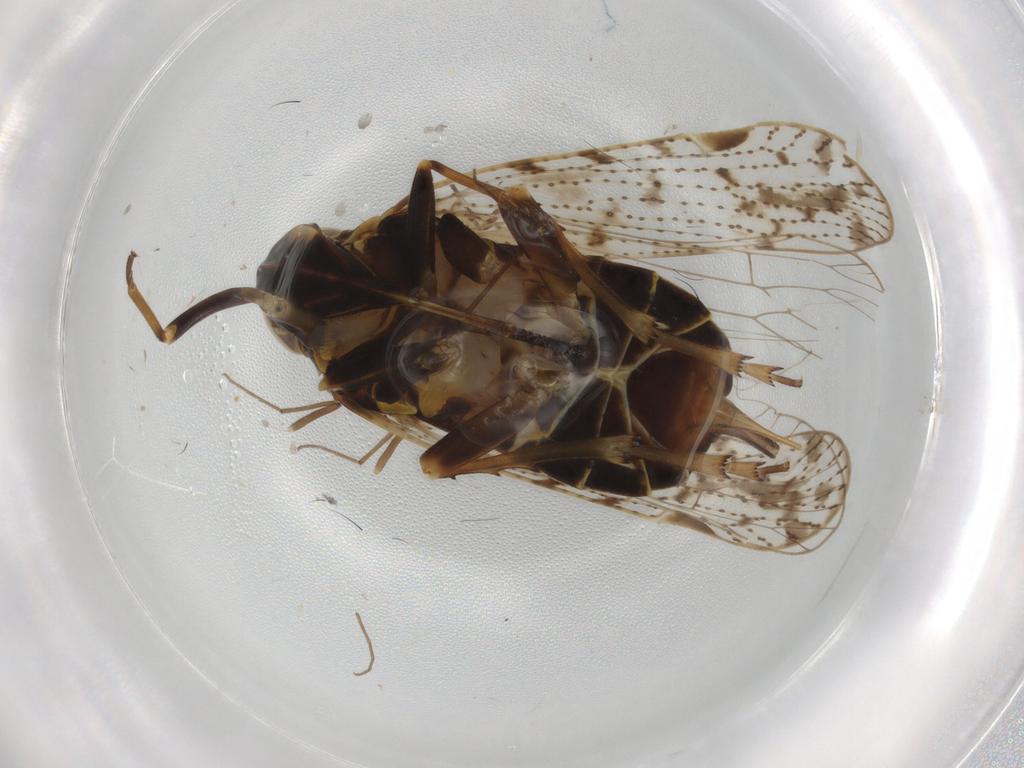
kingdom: Animalia
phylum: Arthropoda
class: Insecta
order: Hemiptera
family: Cixiidae
